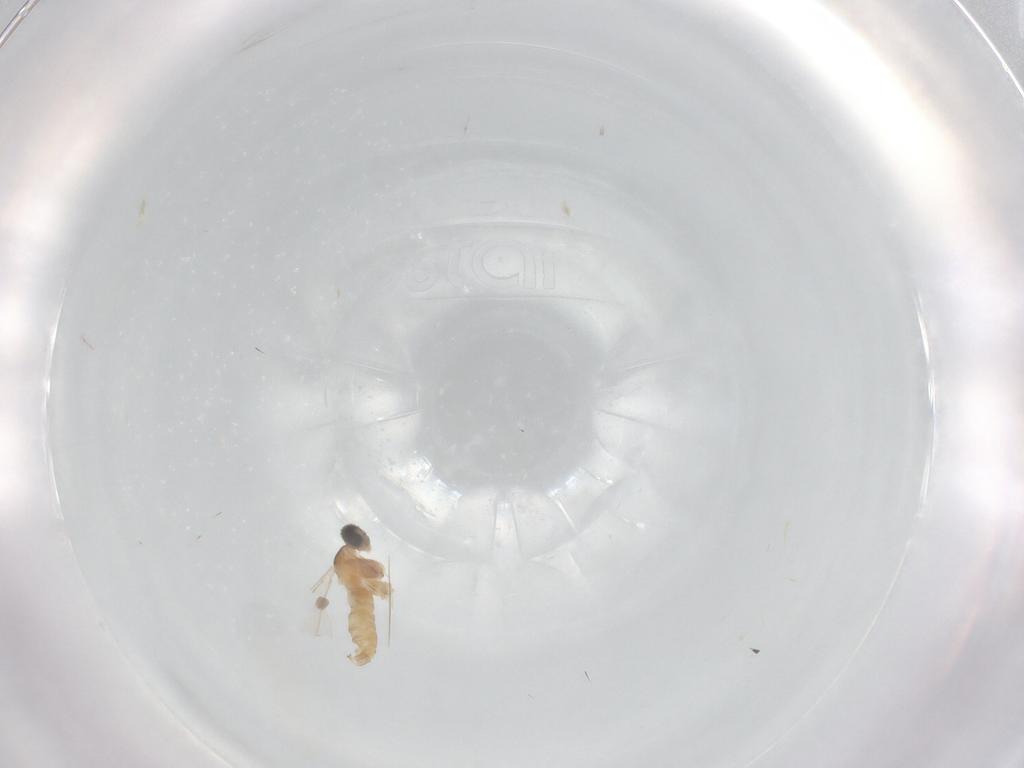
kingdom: Animalia
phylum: Arthropoda
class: Insecta
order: Diptera
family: Cecidomyiidae
